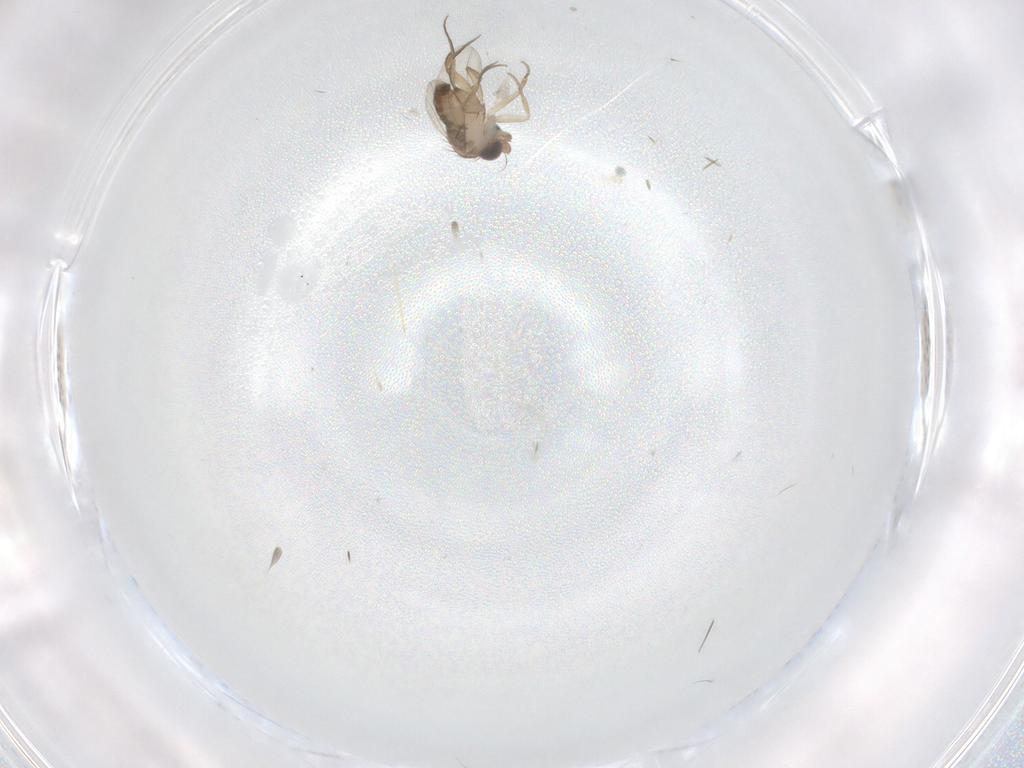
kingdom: Animalia
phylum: Arthropoda
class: Insecta
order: Diptera
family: Phoridae
